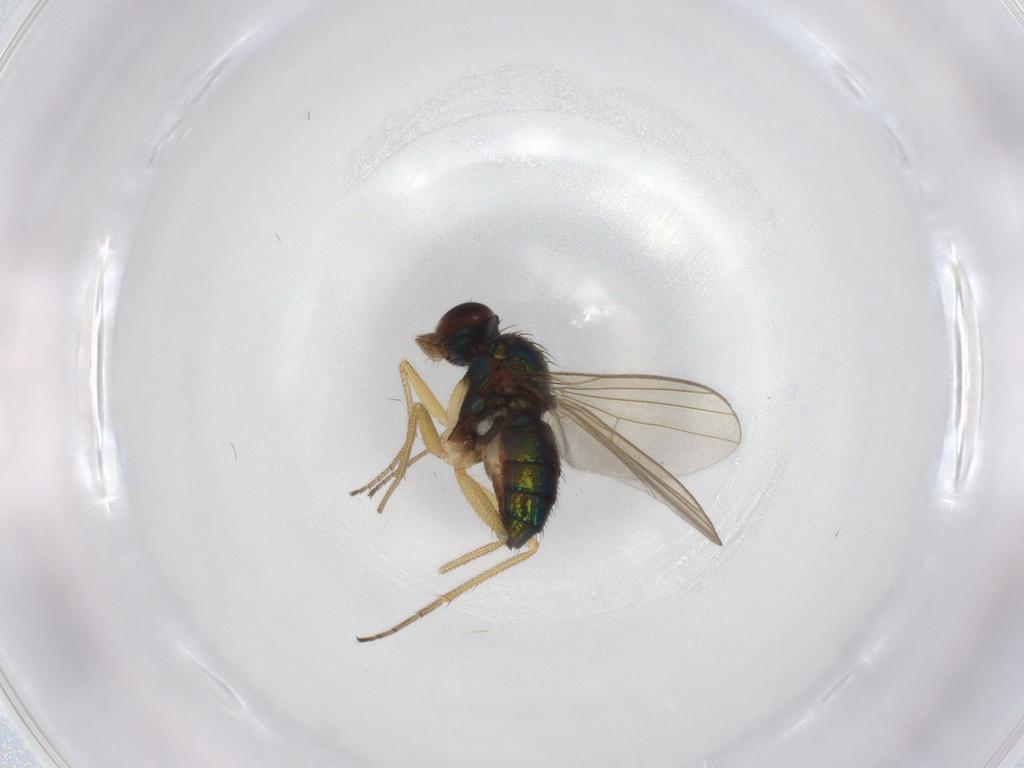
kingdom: Animalia
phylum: Arthropoda
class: Insecta
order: Diptera
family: Dolichopodidae
